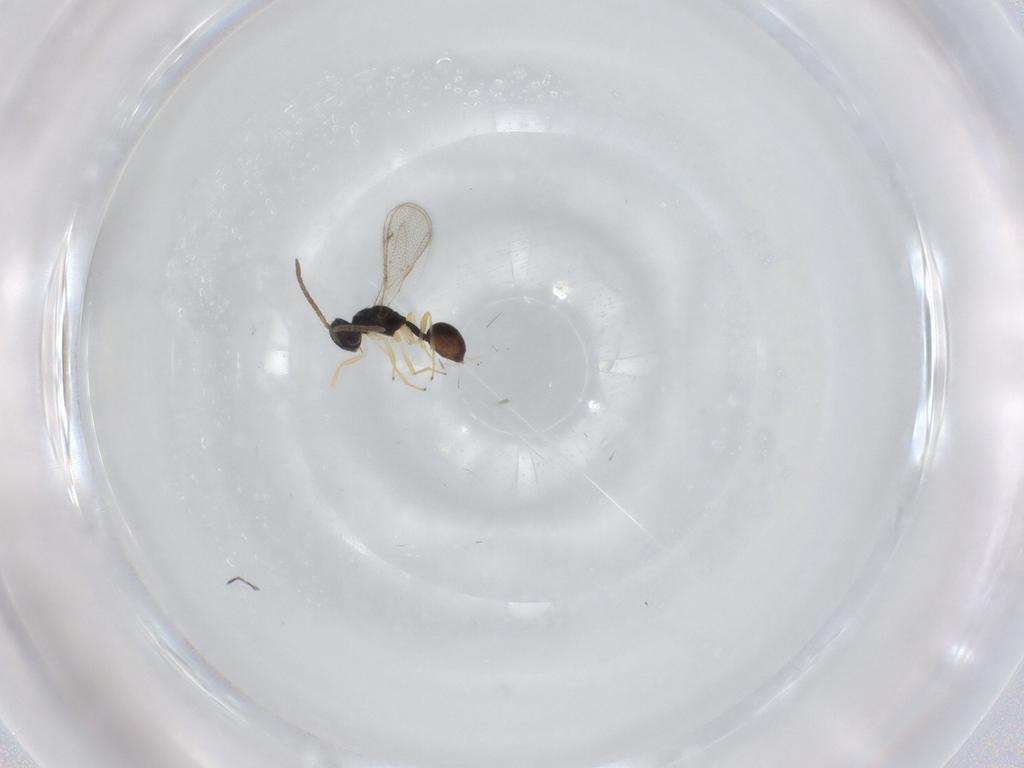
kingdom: Animalia
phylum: Arthropoda
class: Insecta
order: Hymenoptera
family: Diparidae
